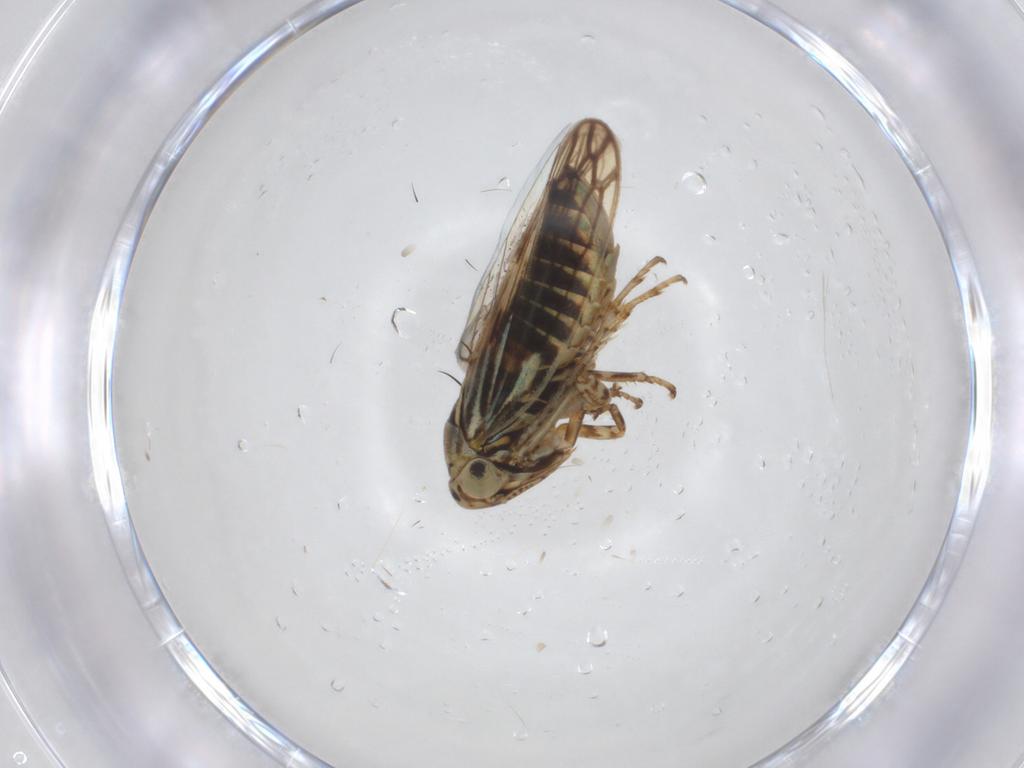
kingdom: Animalia
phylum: Arthropoda
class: Insecta
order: Hemiptera
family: Cicadellidae
